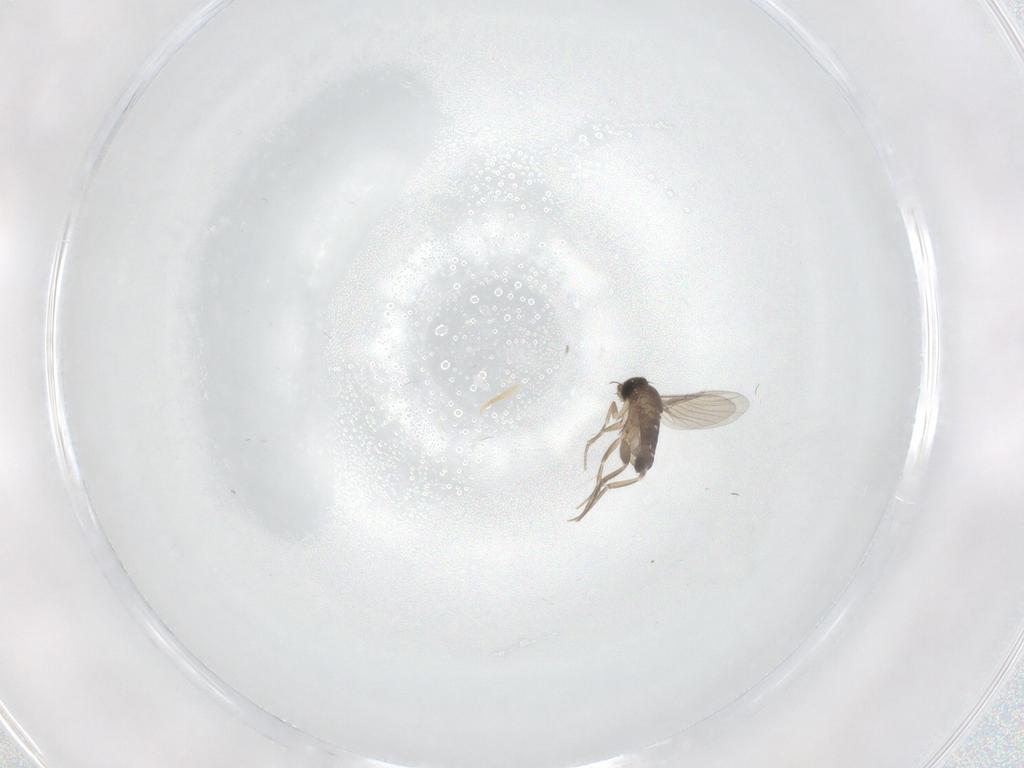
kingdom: Animalia
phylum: Arthropoda
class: Insecta
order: Diptera
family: Phoridae
